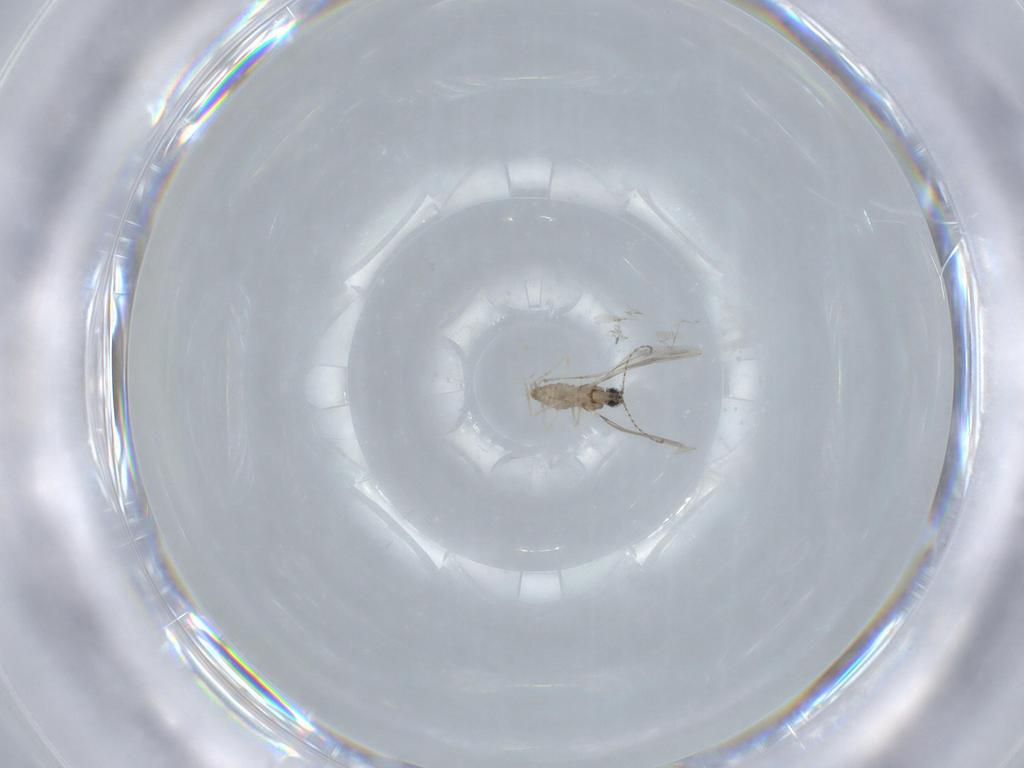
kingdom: Animalia
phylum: Arthropoda
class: Insecta
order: Diptera
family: Cecidomyiidae
